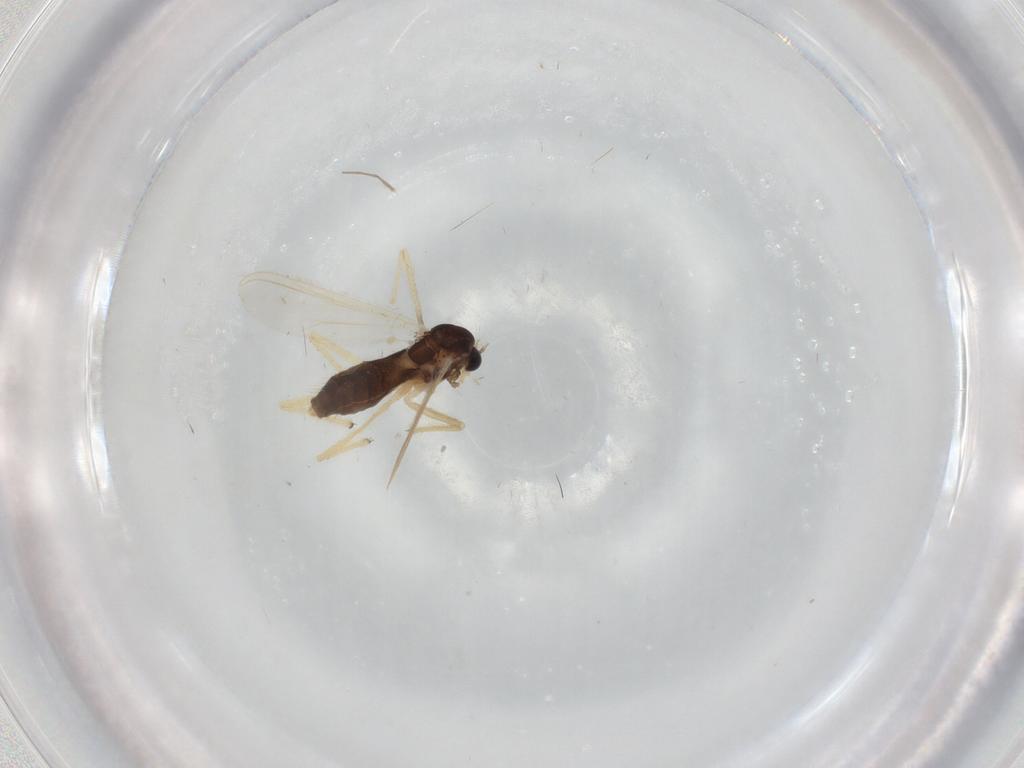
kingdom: Animalia
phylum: Arthropoda
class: Insecta
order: Diptera
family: Chironomidae
